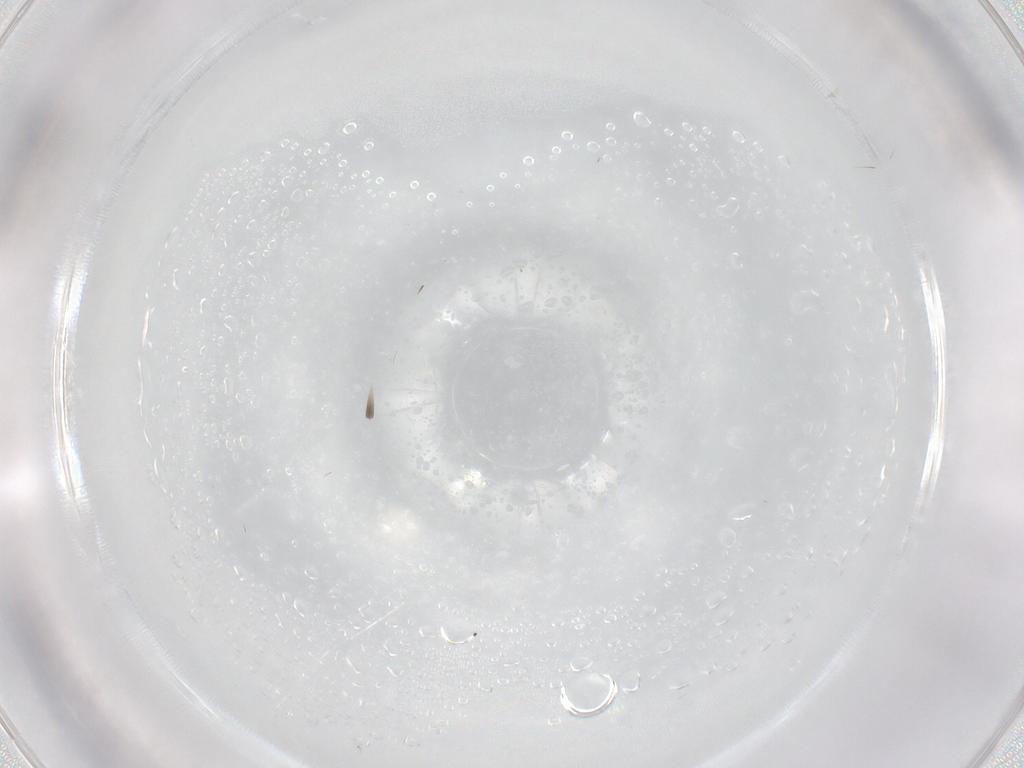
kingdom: Animalia
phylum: Arthropoda
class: Insecta
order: Diptera
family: Cecidomyiidae
